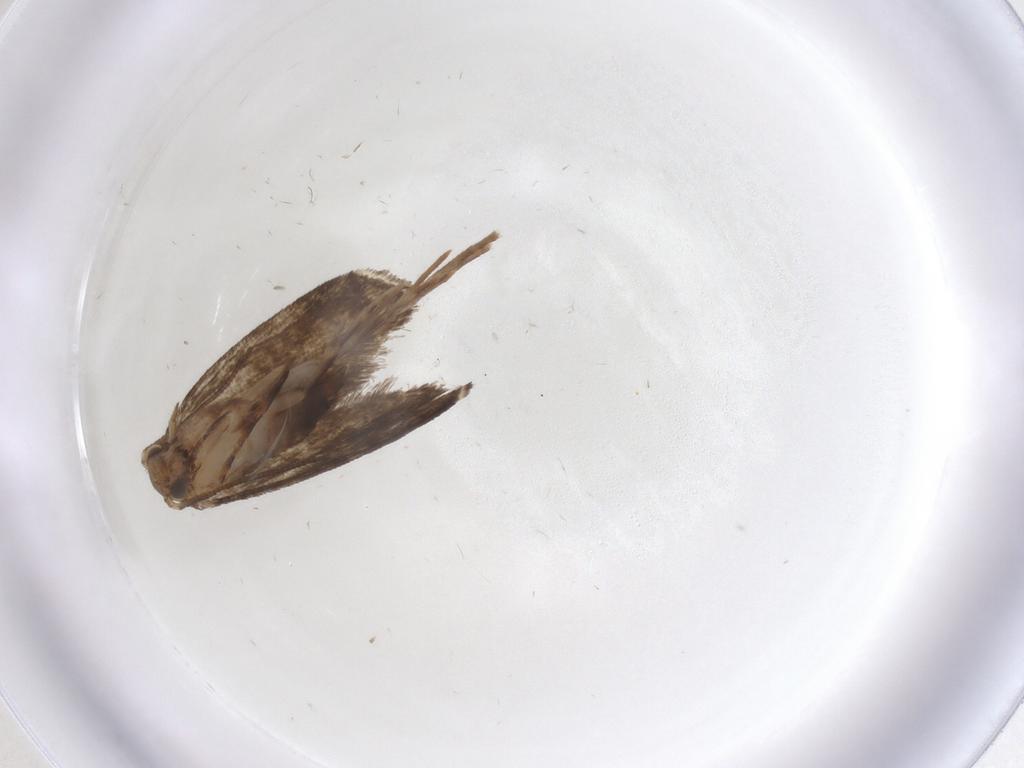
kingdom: Animalia
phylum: Arthropoda
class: Insecta
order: Lepidoptera
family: Tineidae
